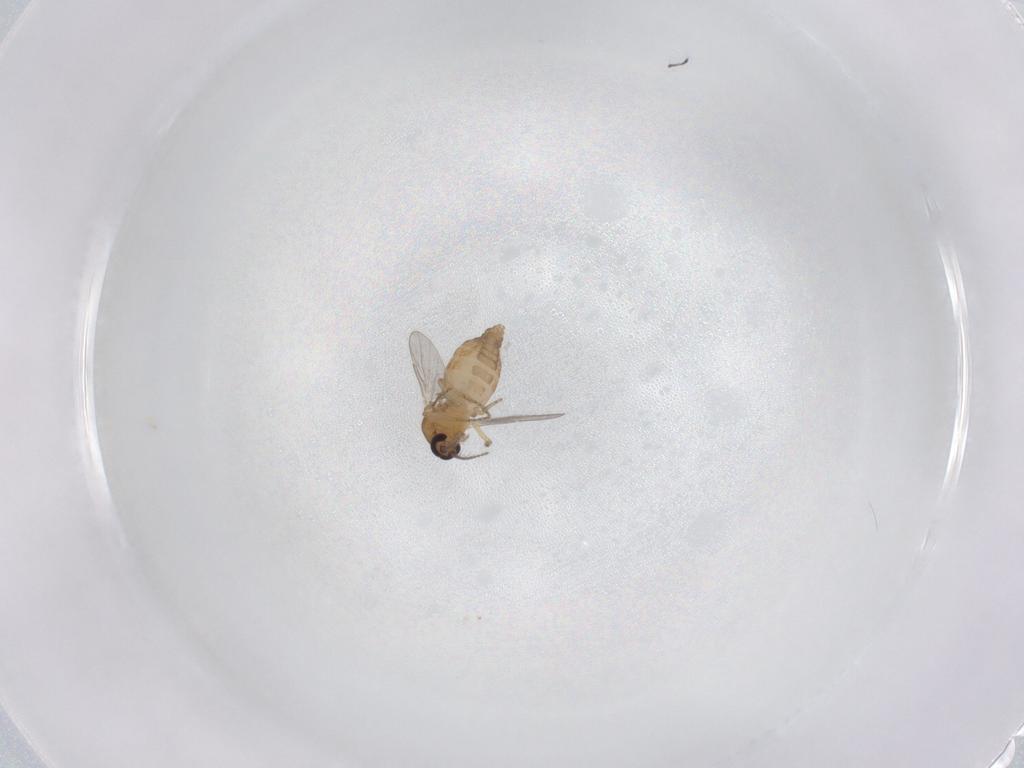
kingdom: Animalia
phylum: Arthropoda
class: Insecta
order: Diptera
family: Ceratopogonidae
